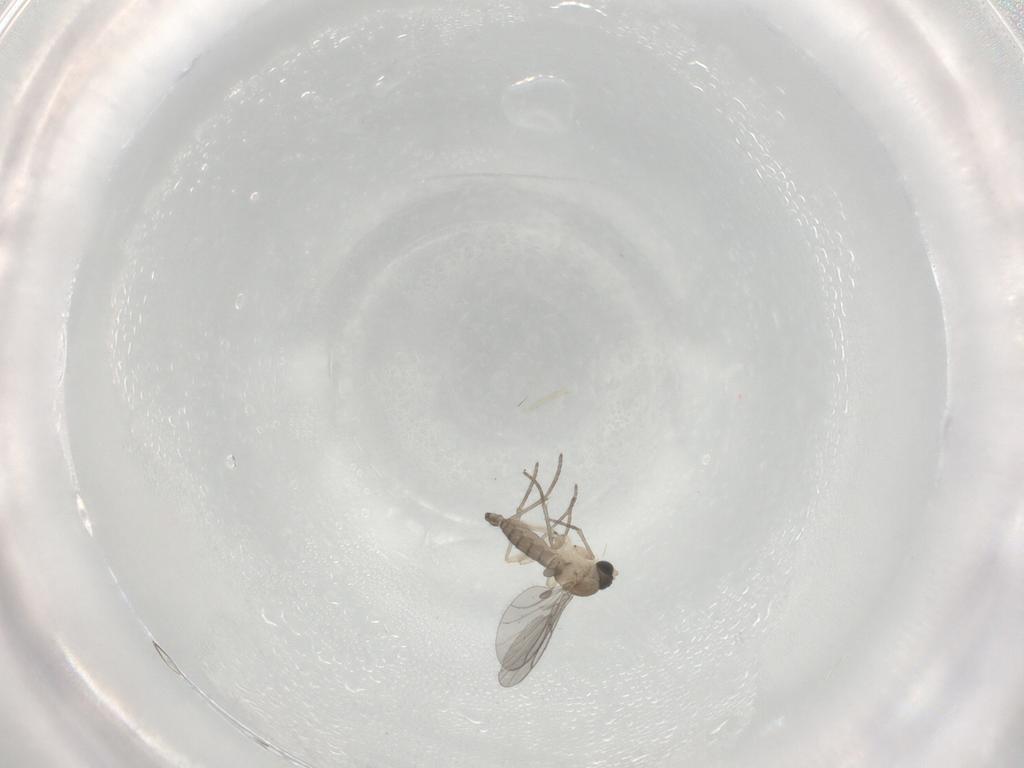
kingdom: Animalia
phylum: Arthropoda
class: Insecta
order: Diptera
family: Sciaridae
